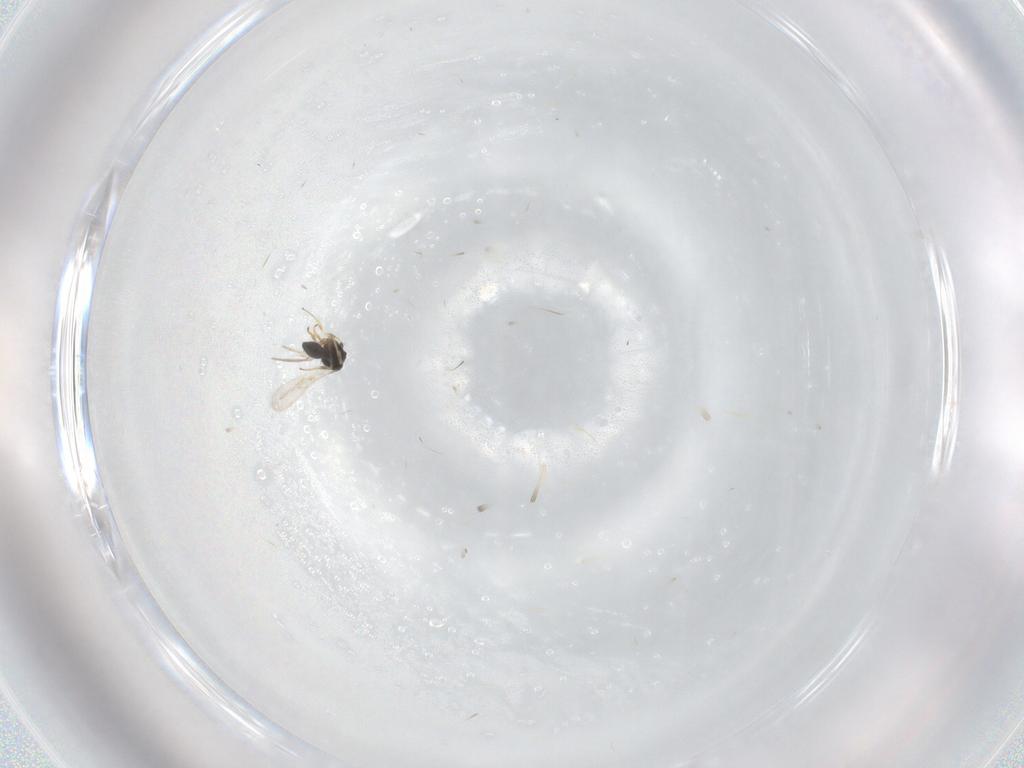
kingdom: Animalia
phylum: Arthropoda
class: Insecta
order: Hymenoptera
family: Scelionidae
